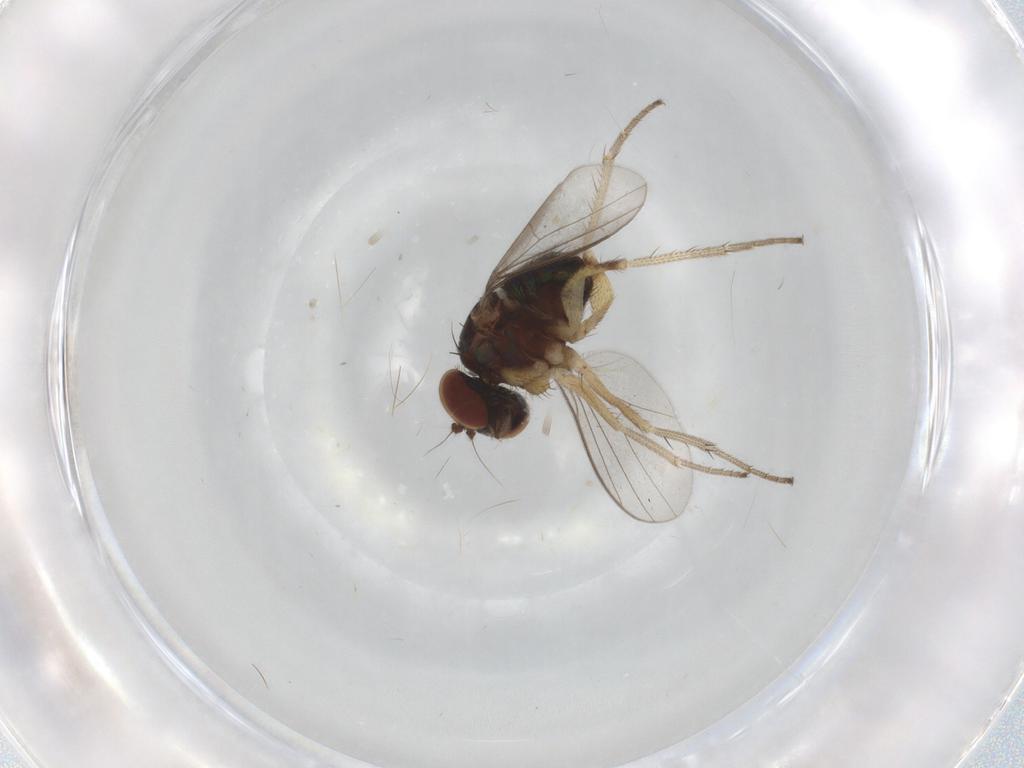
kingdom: Animalia
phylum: Arthropoda
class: Insecta
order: Diptera
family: Dolichopodidae
